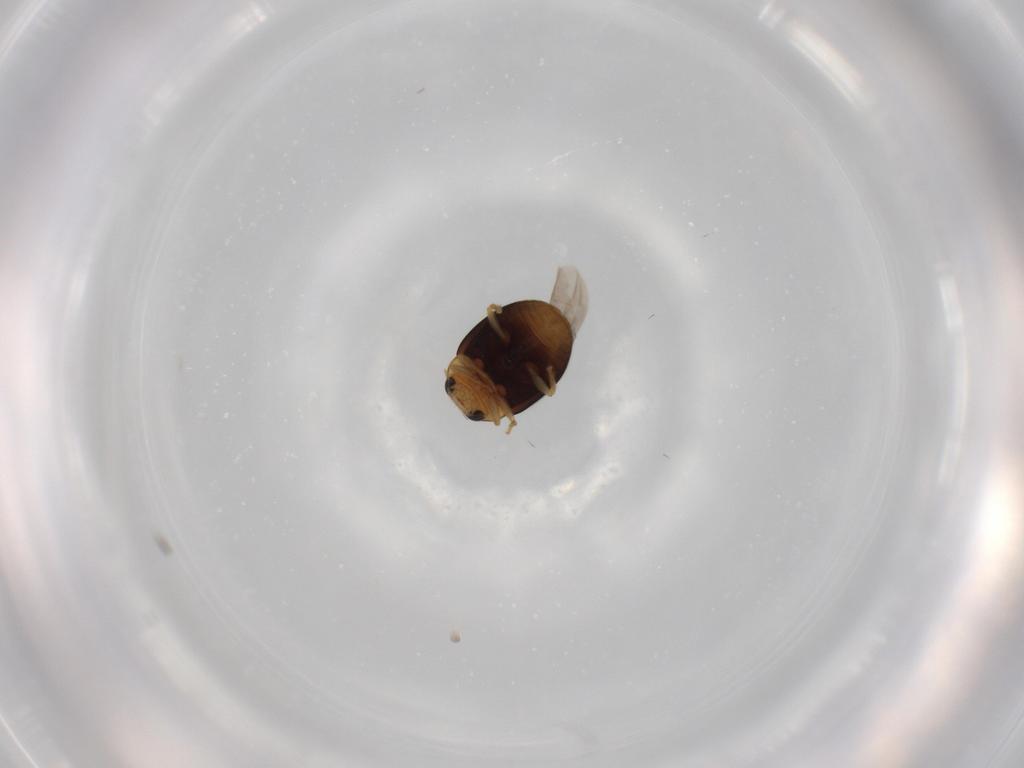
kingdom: Animalia
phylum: Arthropoda
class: Insecta
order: Coleoptera
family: Coccinellidae
